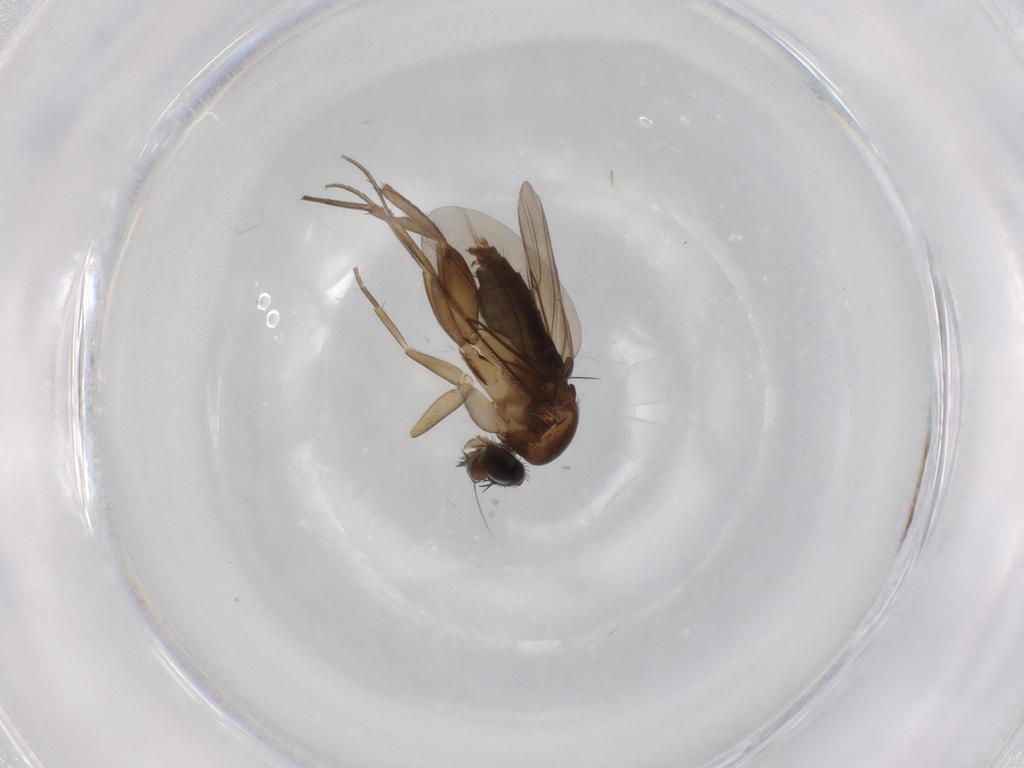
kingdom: Animalia
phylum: Arthropoda
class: Insecta
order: Diptera
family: Phoridae
